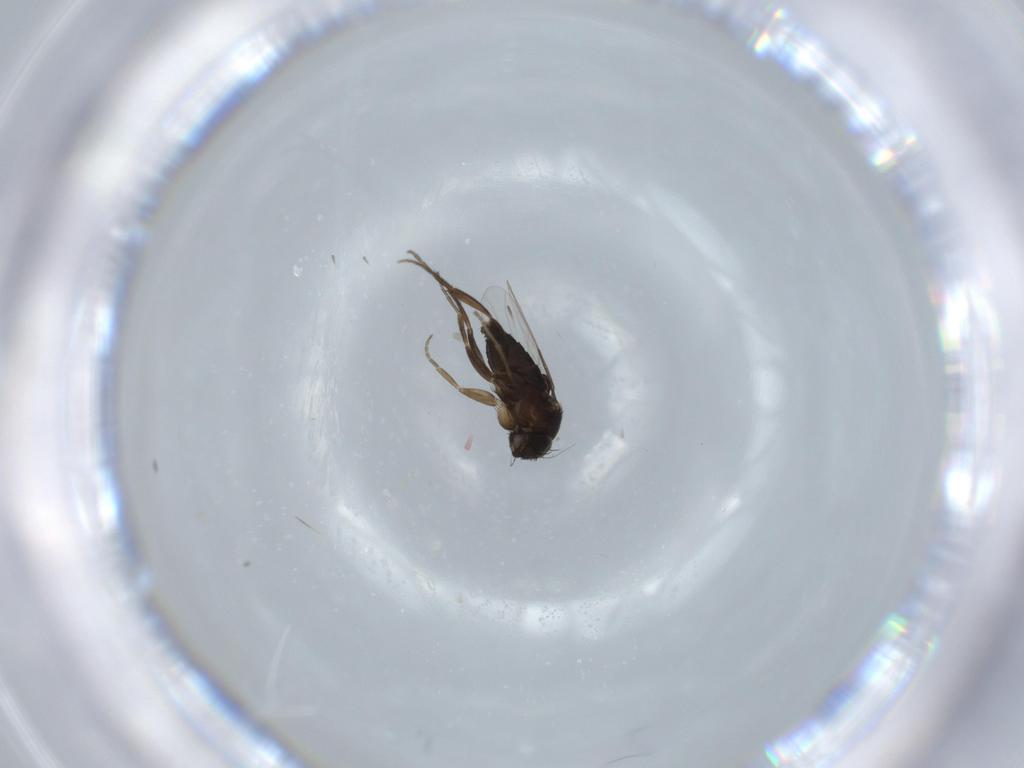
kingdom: Animalia
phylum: Arthropoda
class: Insecta
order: Diptera
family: Phoridae
